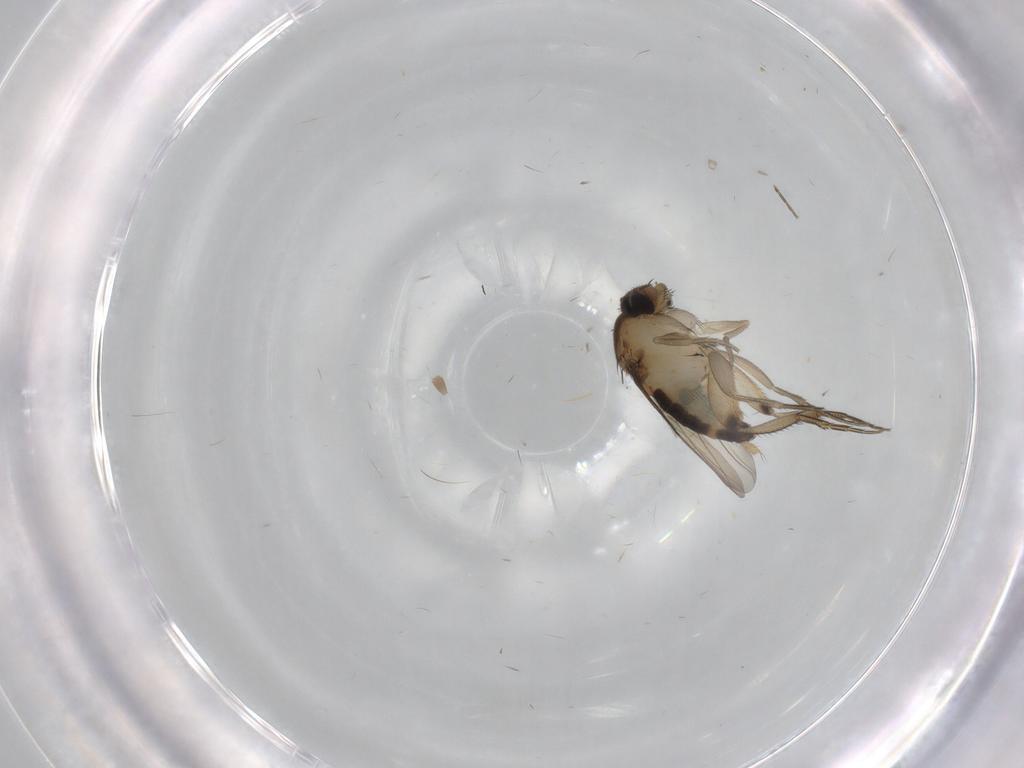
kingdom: Animalia
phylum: Arthropoda
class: Insecta
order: Diptera
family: Phoridae
